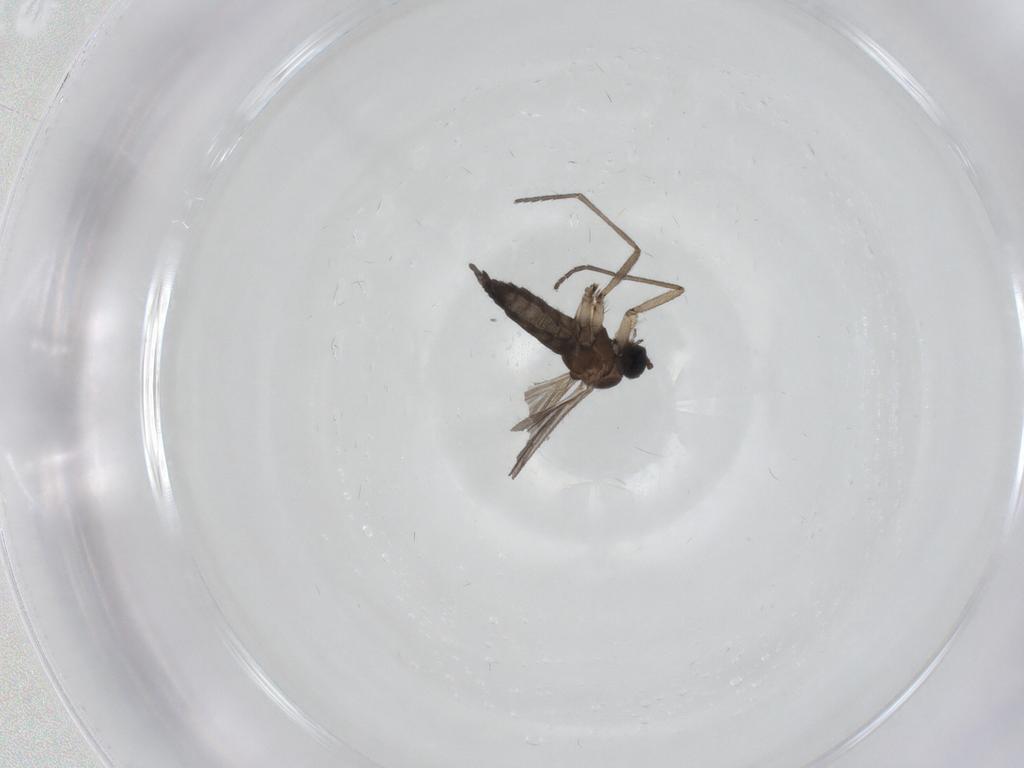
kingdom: Animalia
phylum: Arthropoda
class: Insecta
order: Diptera
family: Sciaridae
